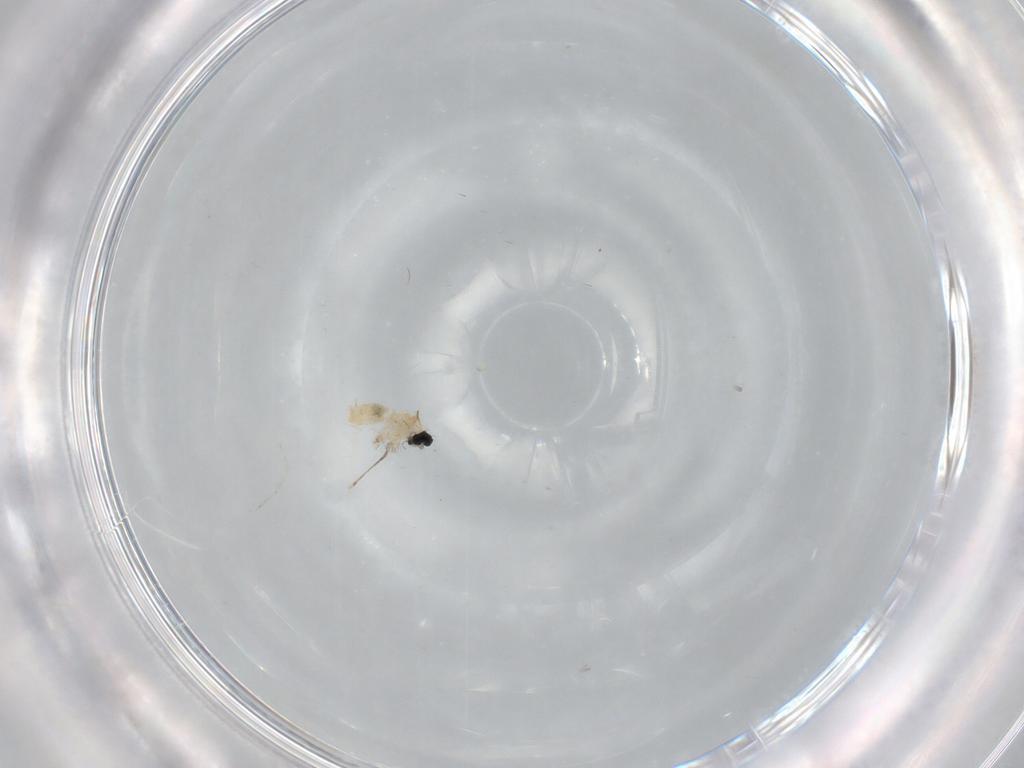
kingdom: Animalia
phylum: Arthropoda
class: Insecta
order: Diptera
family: Cecidomyiidae
